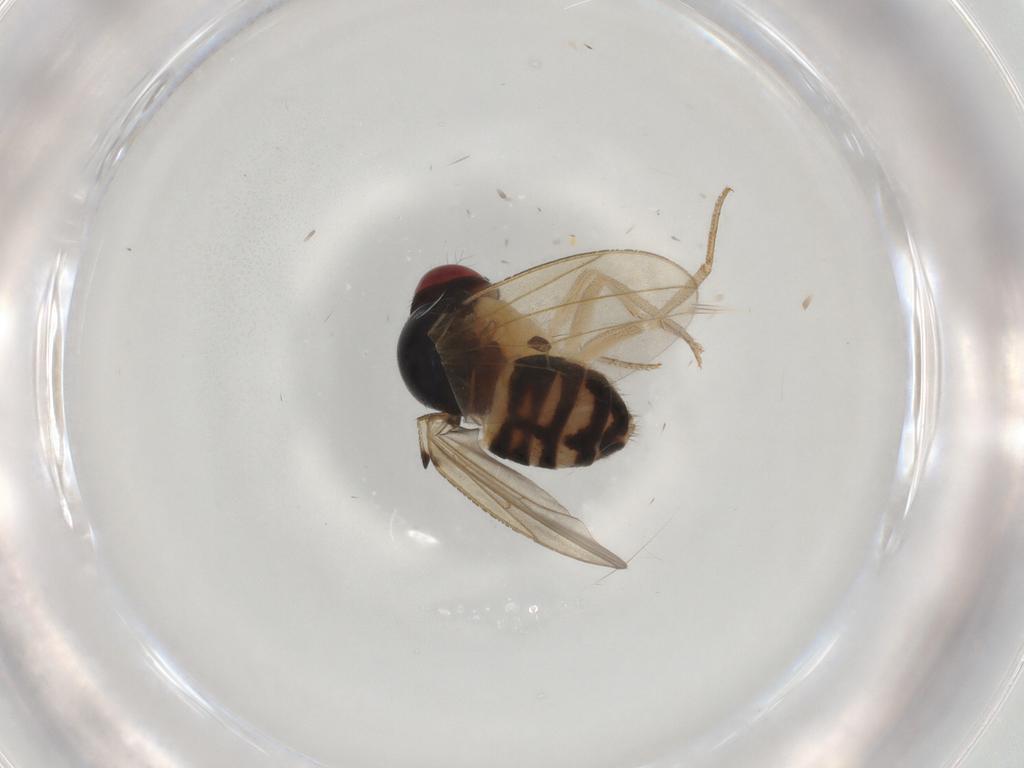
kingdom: Animalia
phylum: Arthropoda
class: Insecta
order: Diptera
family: Drosophilidae
